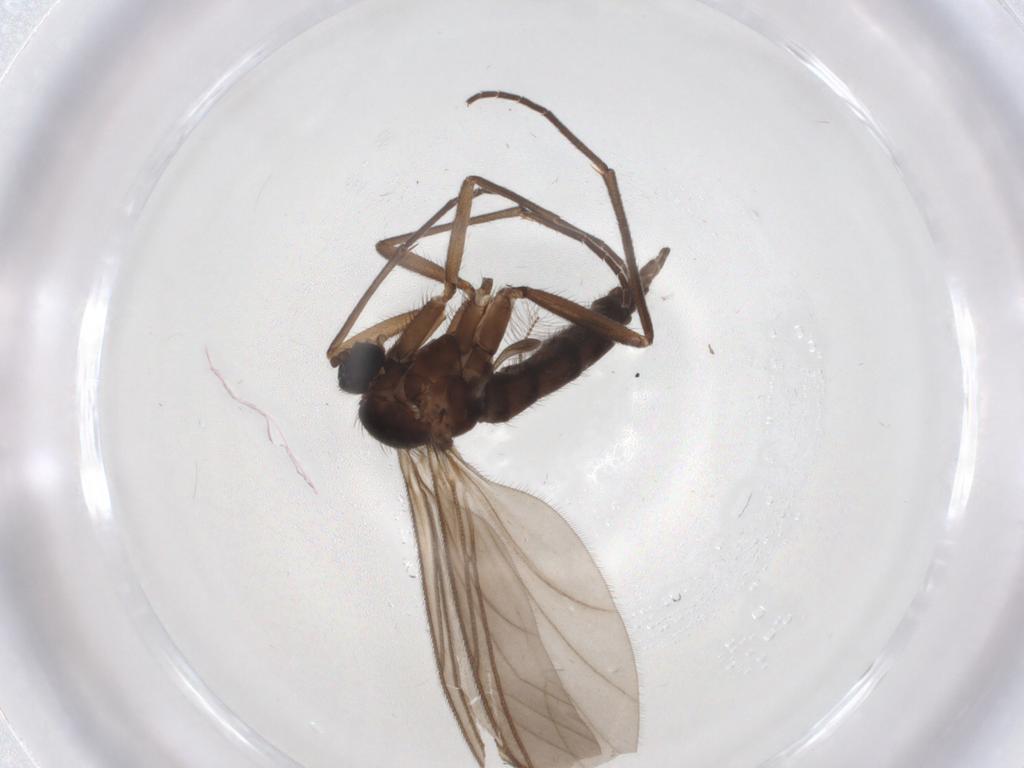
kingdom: Animalia
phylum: Arthropoda
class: Insecta
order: Diptera
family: Sciaridae
